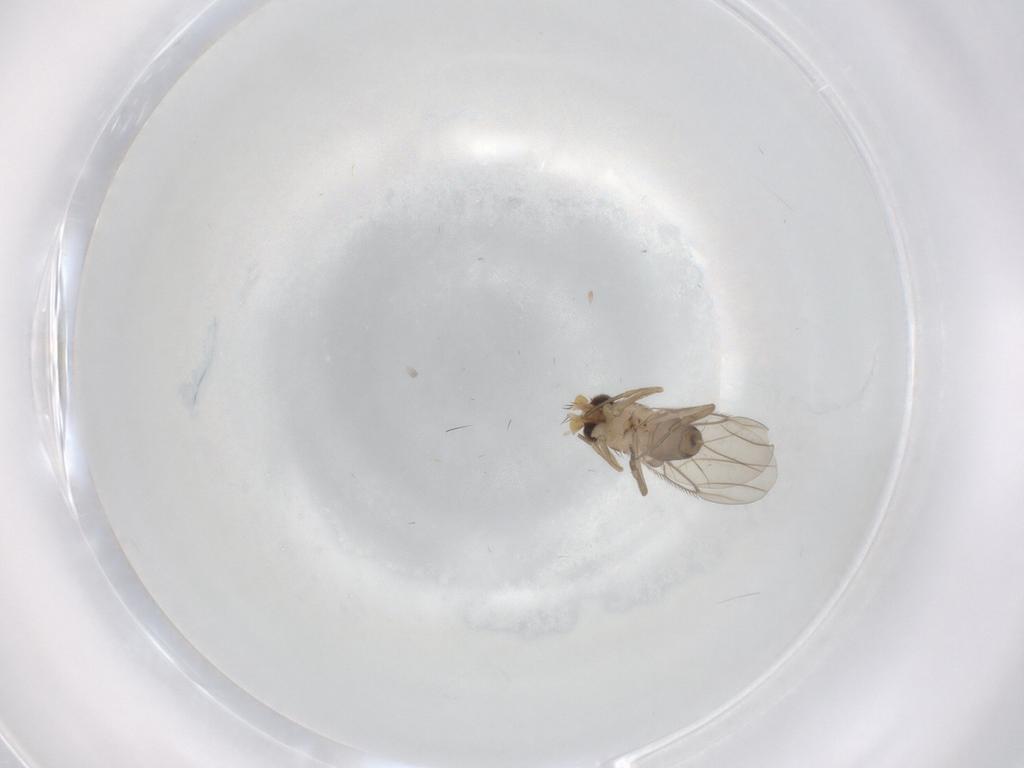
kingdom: Animalia
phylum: Arthropoda
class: Insecta
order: Diptera
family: Phoridae
